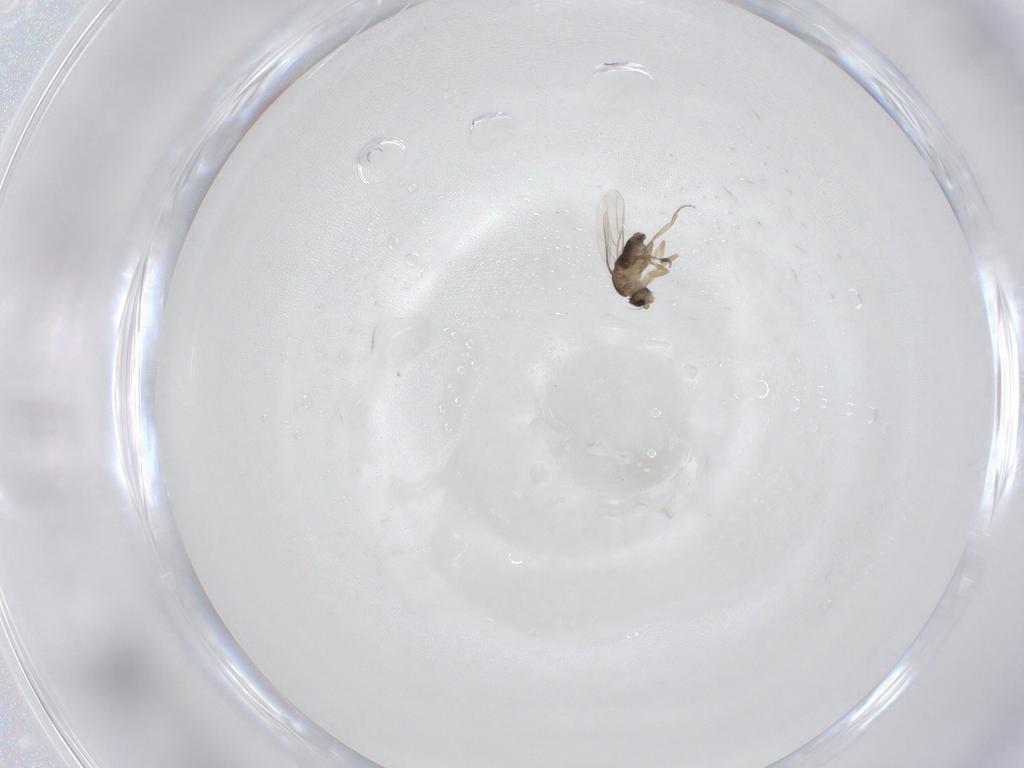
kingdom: Animalia
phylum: Arthropoda
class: Insecta
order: Diptera
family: Phoridae
